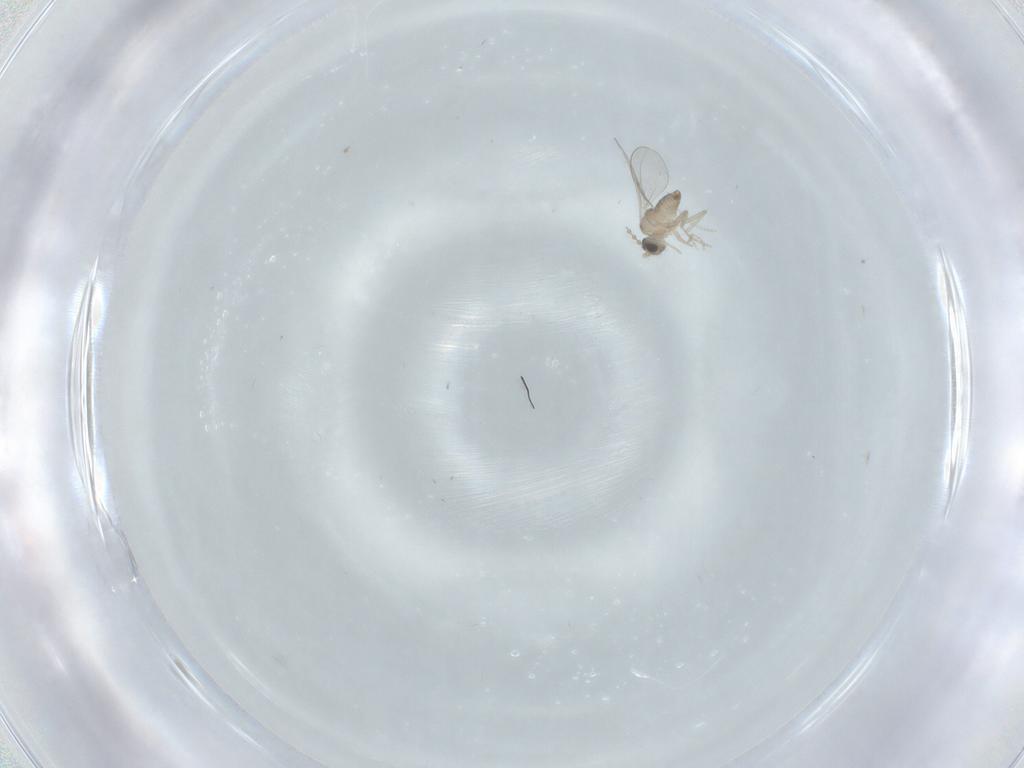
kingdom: Animalia
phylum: Arthropoda
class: Insecta
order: Diptera
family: Cecidomyiidae
